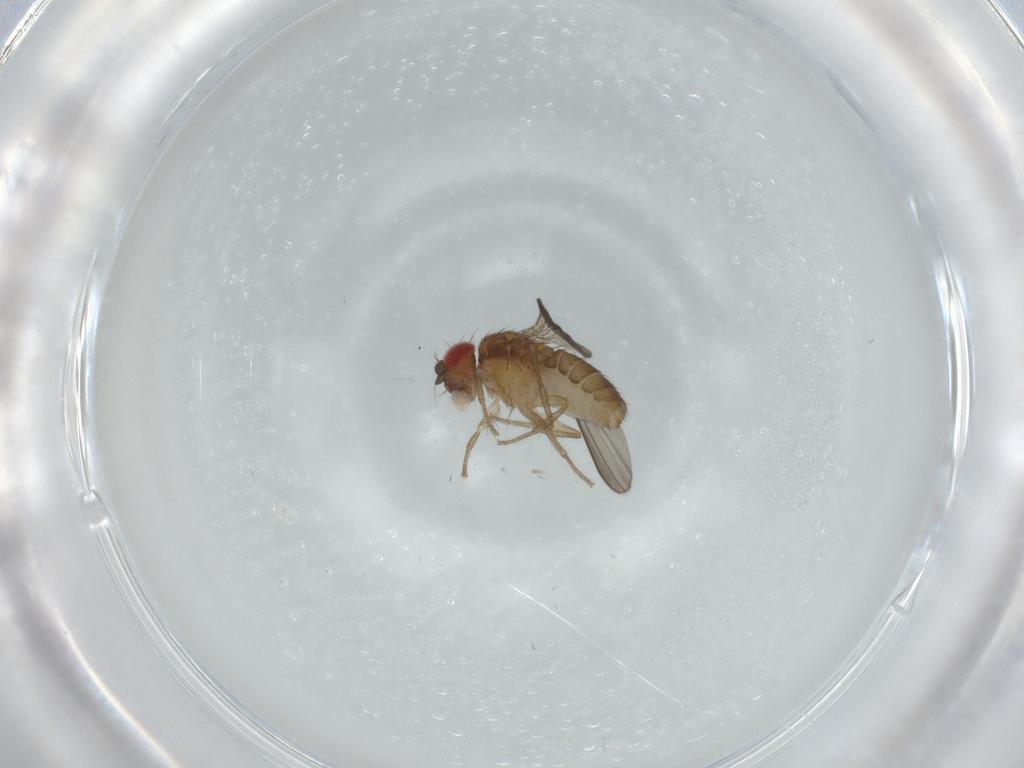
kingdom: Animalia
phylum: Arthropoda
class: Insecta
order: Diptera
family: Drosophilidae
